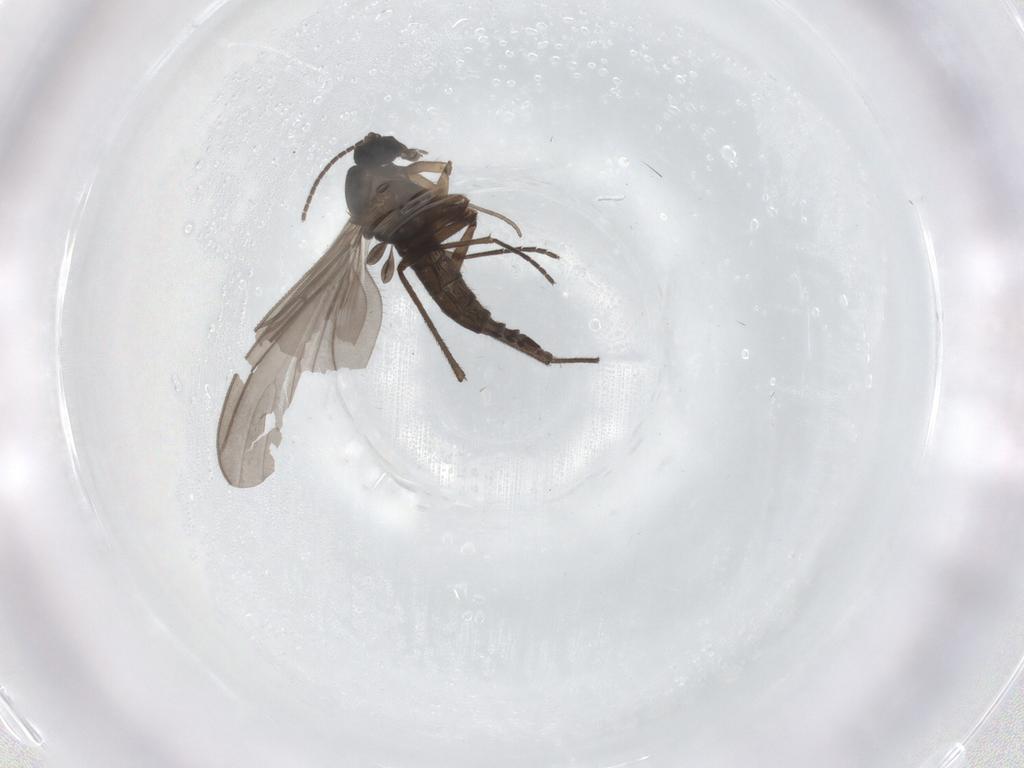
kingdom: Animalia
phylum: Arthropoda
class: Insecta
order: Diptera
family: Sciaridae
